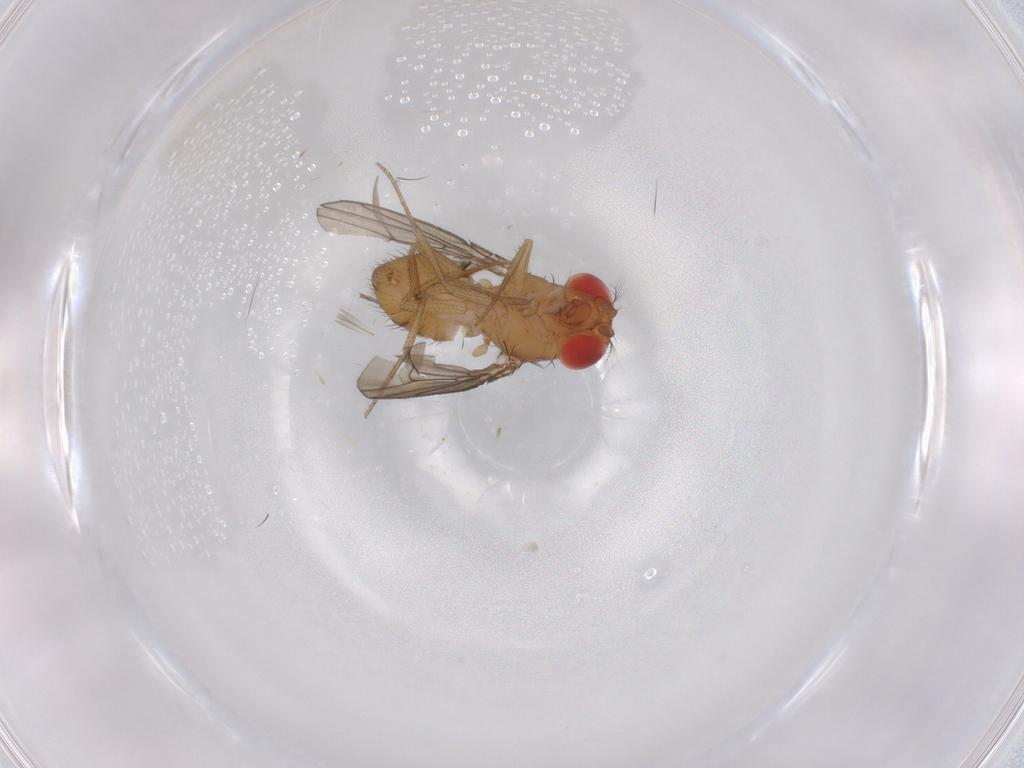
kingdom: Animalia
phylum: Arthropoda
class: Insecta
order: Diptera
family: Drosophilidae
